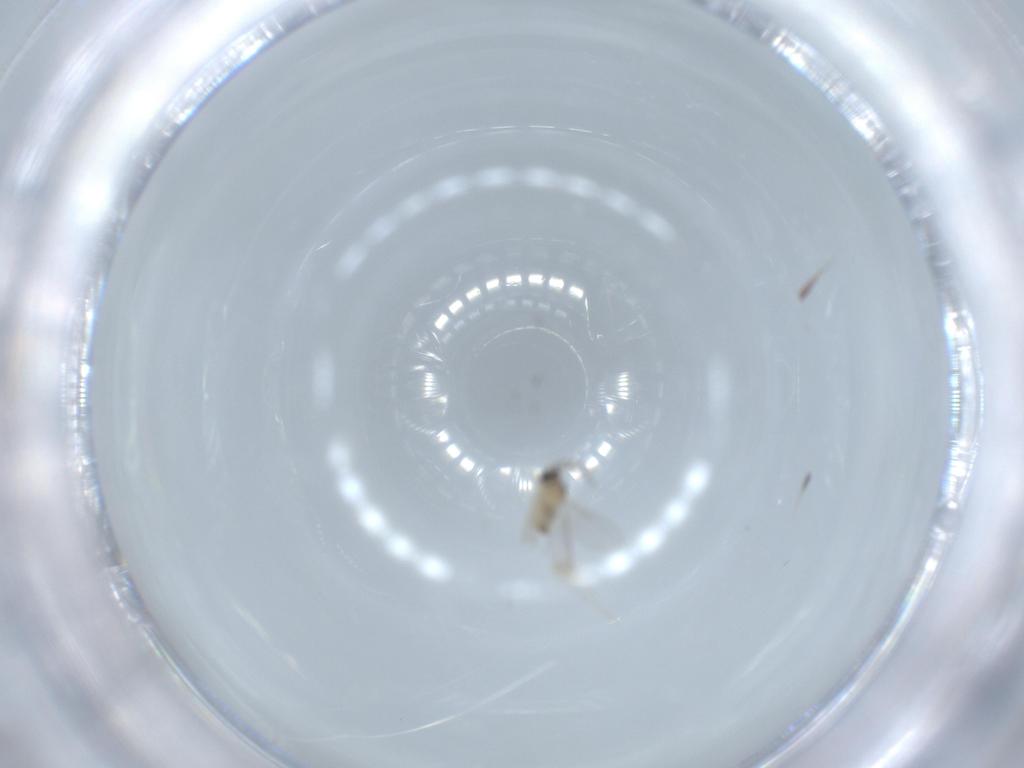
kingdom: Animalia
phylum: Arthropoda
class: Insecta
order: Diptera
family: Cecidomyiidae
